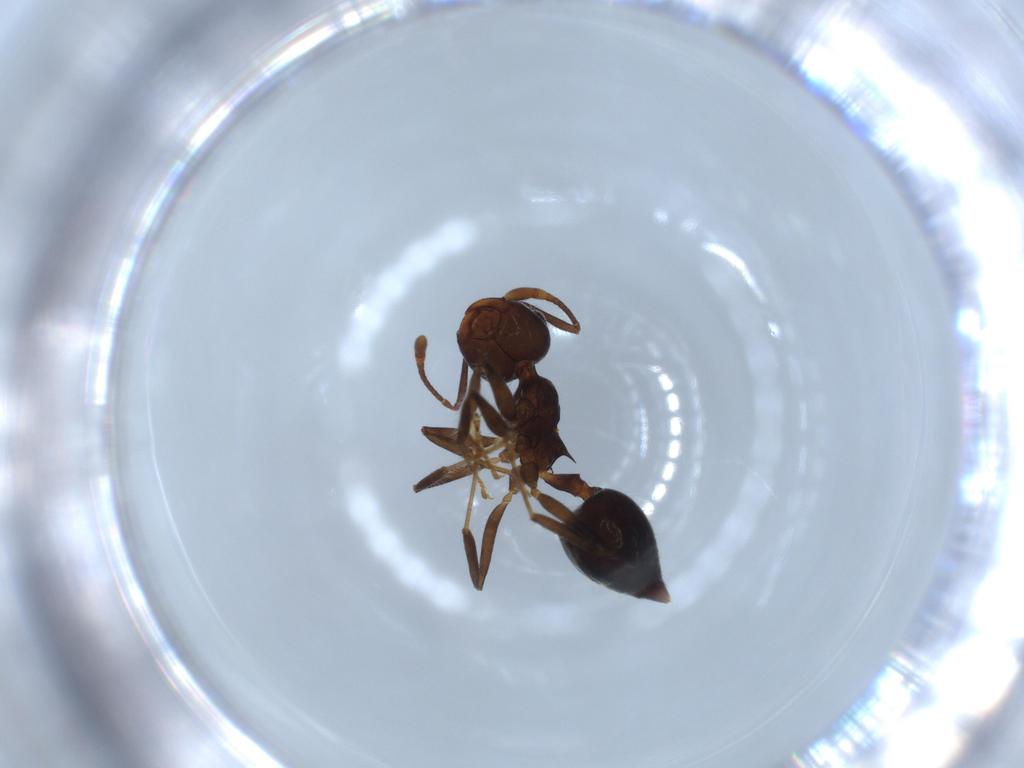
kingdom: Animalia
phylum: Arthropoda
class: Insecta
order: Hymenoptera
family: Formicidae
